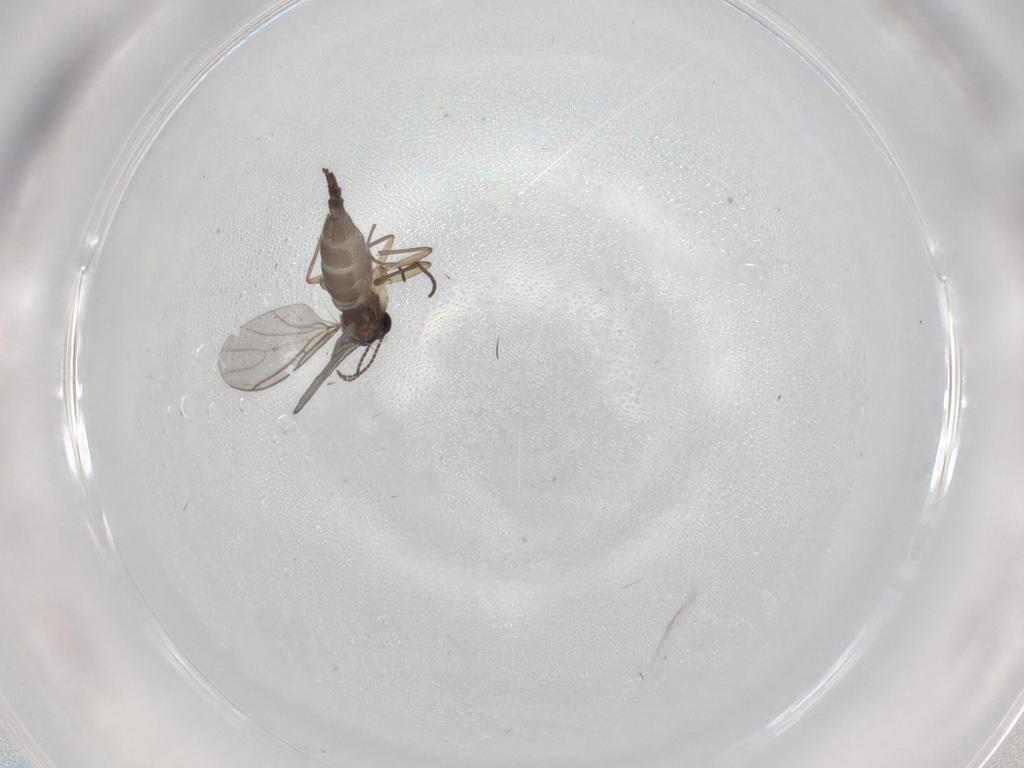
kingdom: Animalia
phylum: Arthropoda
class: Insecta
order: Diptera
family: Sciaridae
